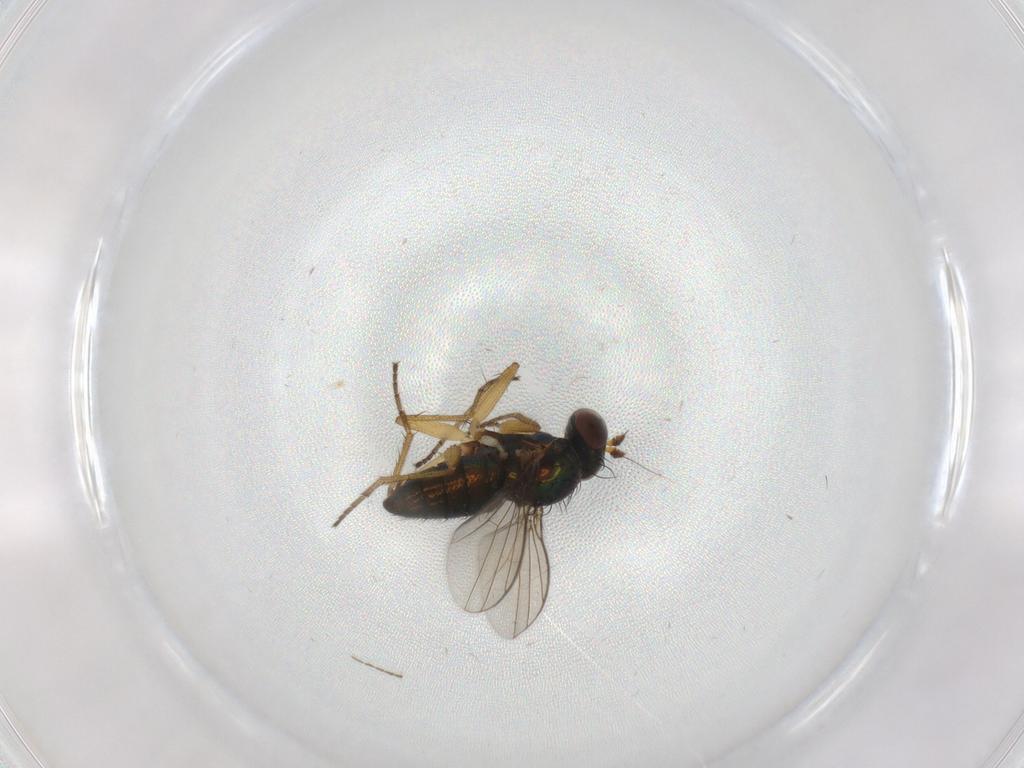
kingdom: Animalia
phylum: Arthropoda
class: Insecta
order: Diptera
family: Ceratopogonidae
